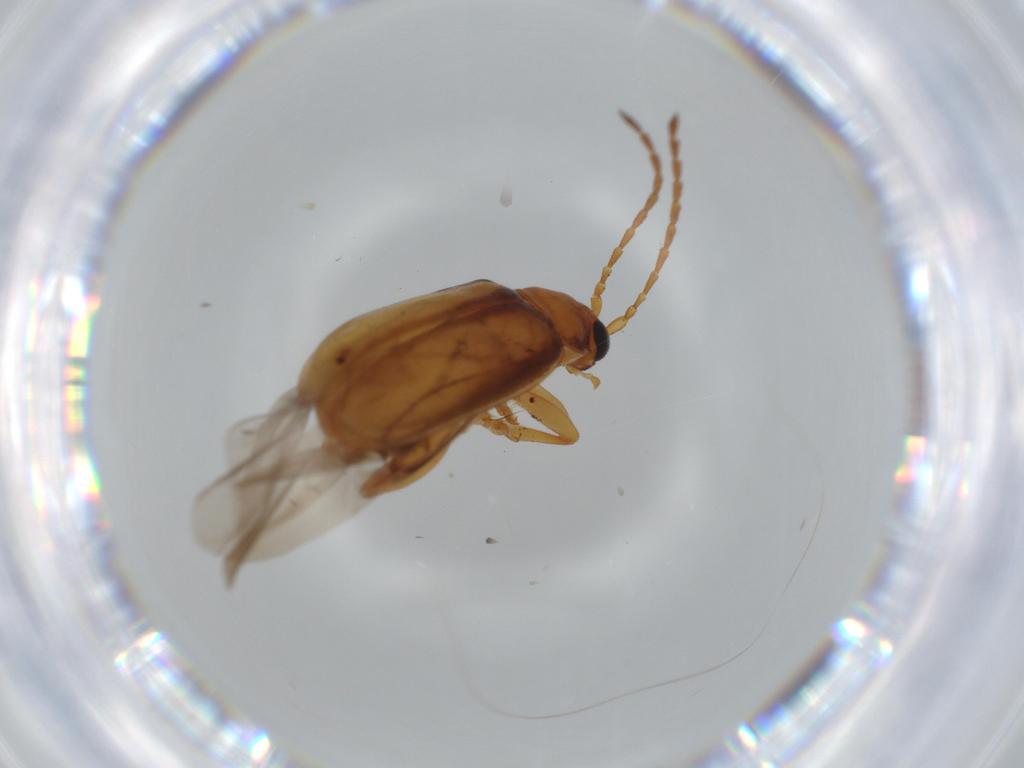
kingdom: Animalia
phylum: Arthropoda
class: Insecta
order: Coleoptera
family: Chrysomelidae
